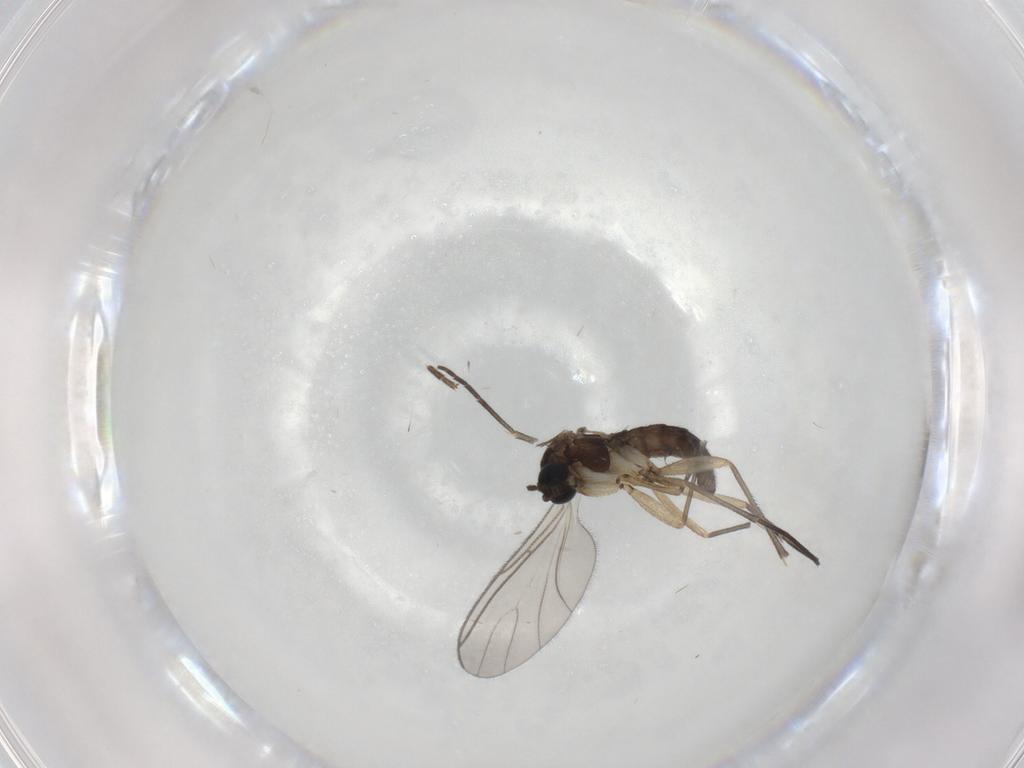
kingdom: Animalia
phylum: Arthropoda
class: Insecta
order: Diptera
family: Sciaridae
